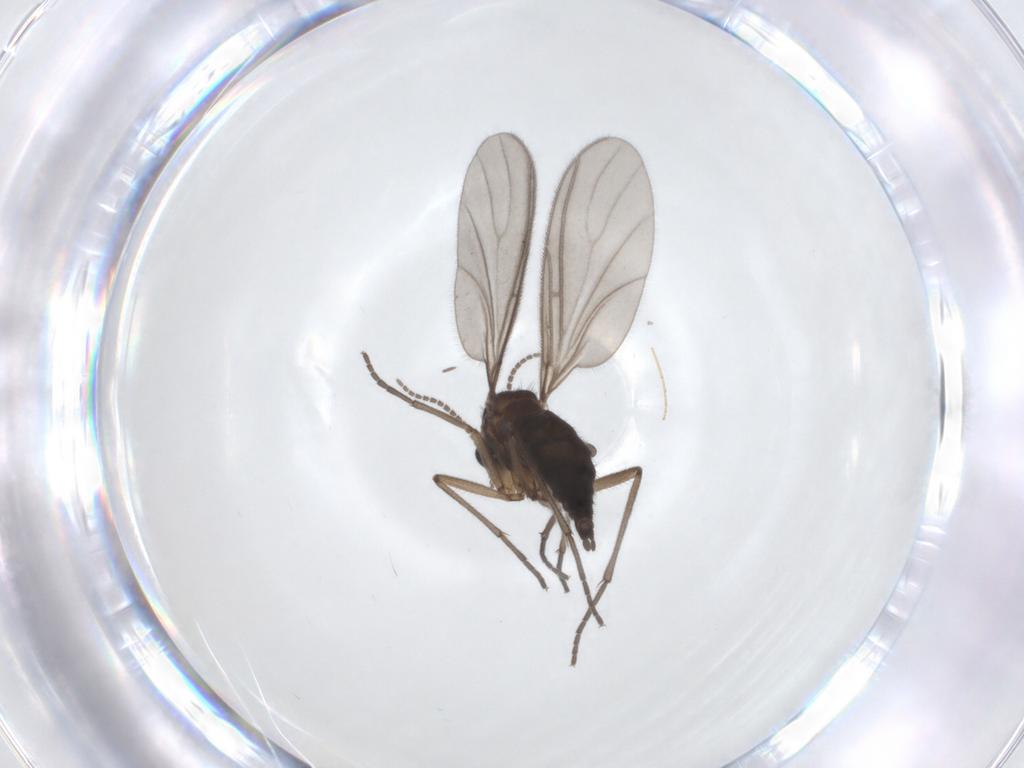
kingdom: Animalia
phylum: Arthropoda
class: Insecta
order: Diptera
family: Sciaridae
